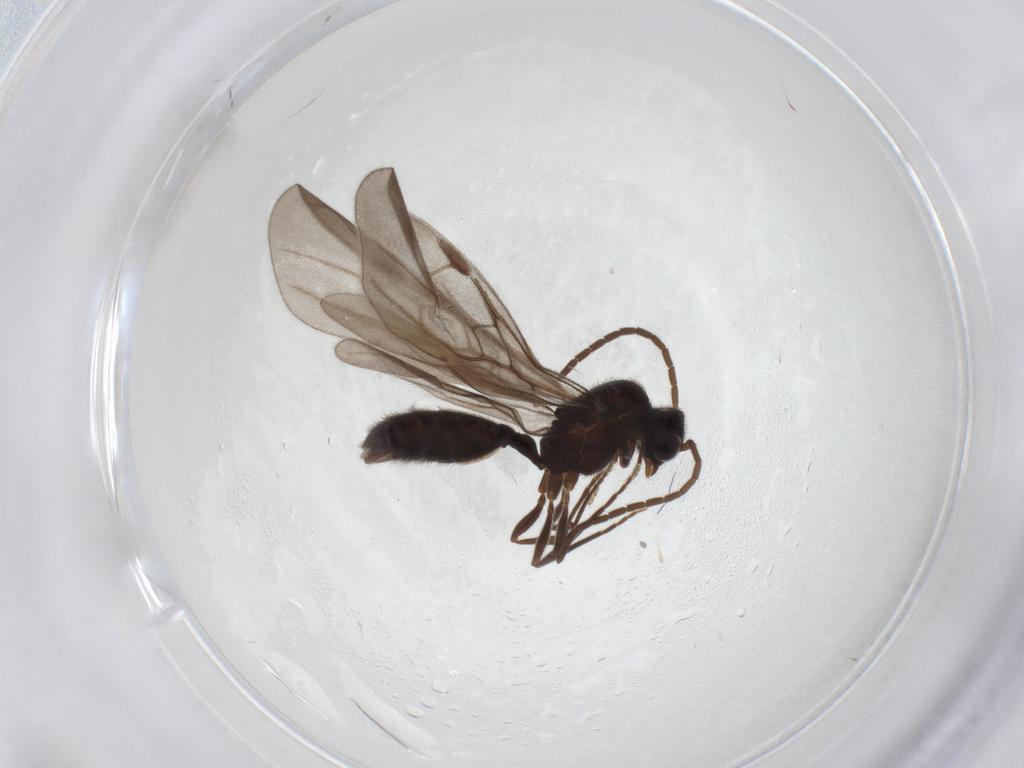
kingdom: Animalia
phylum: Arthropoda
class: Insecta
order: Hymenoptera
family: Formicidae
